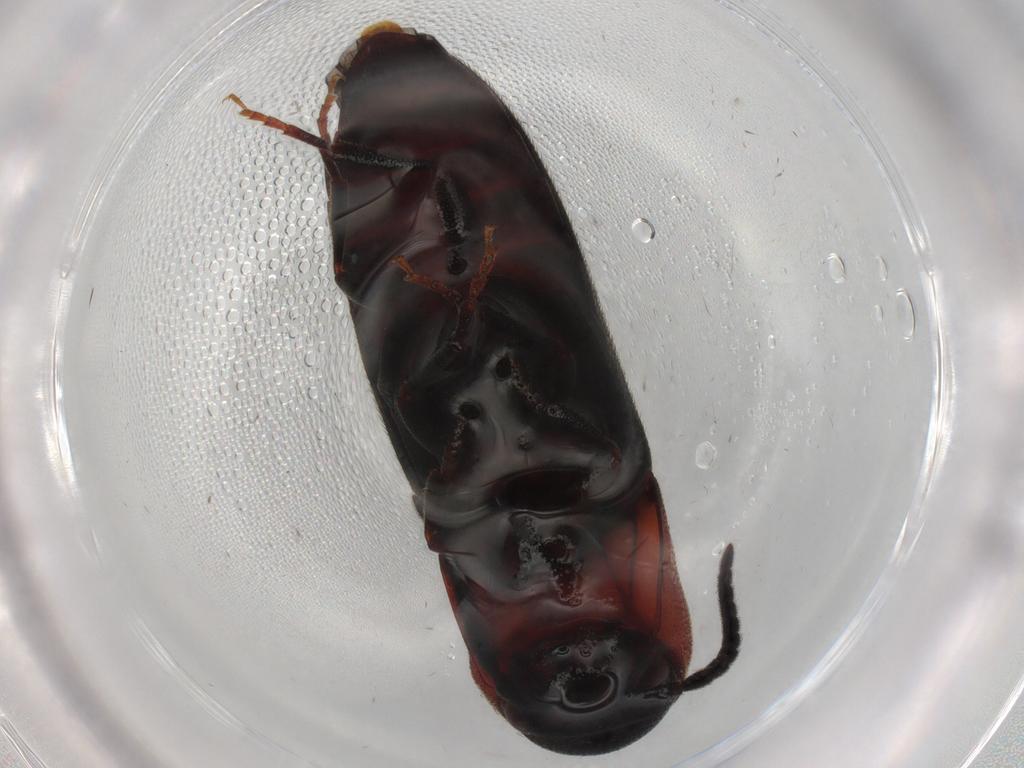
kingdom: Animalia
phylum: Arthropoda
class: Insecta
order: Coleoptera
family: Eucnemidae
